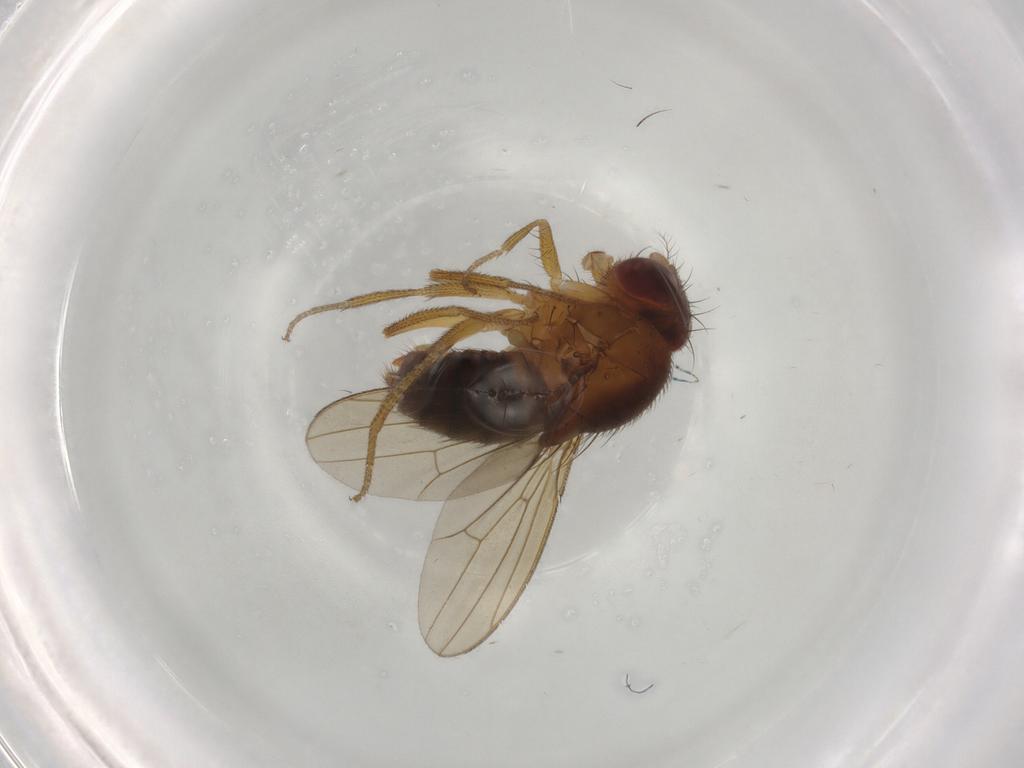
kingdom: Animalia
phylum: Arthropoda
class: Insecta
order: Diptera
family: Drosophilidae
